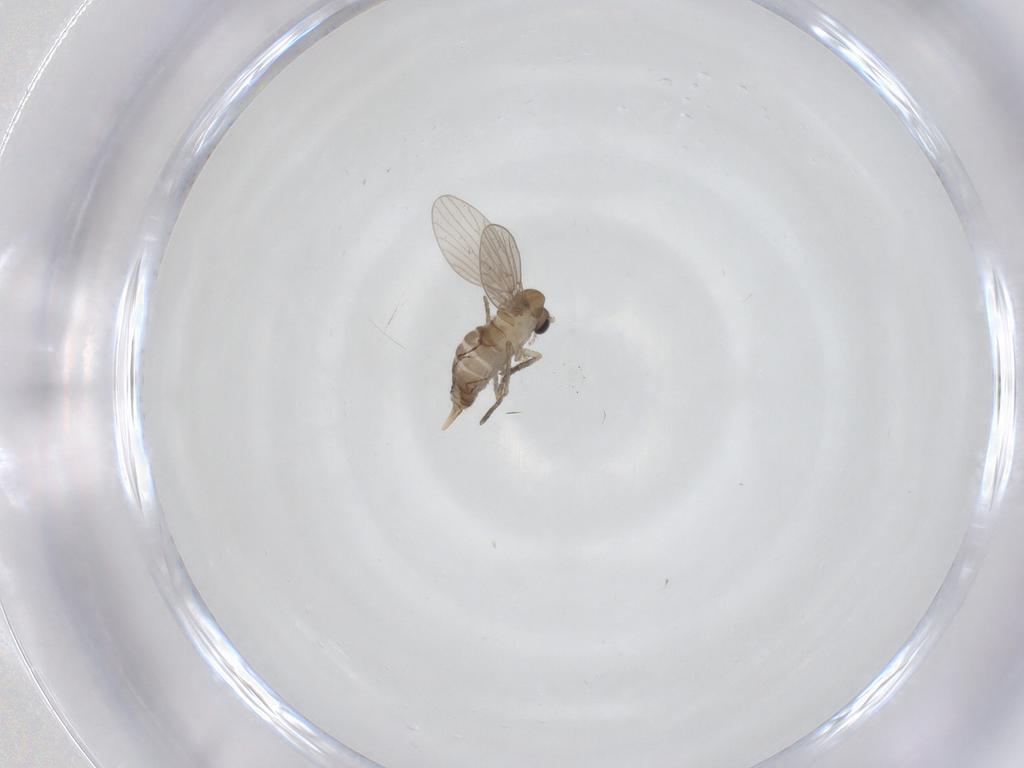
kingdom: Animalia
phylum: Arthropoda
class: Insecta
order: Diptera
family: Cecidomyiidae
